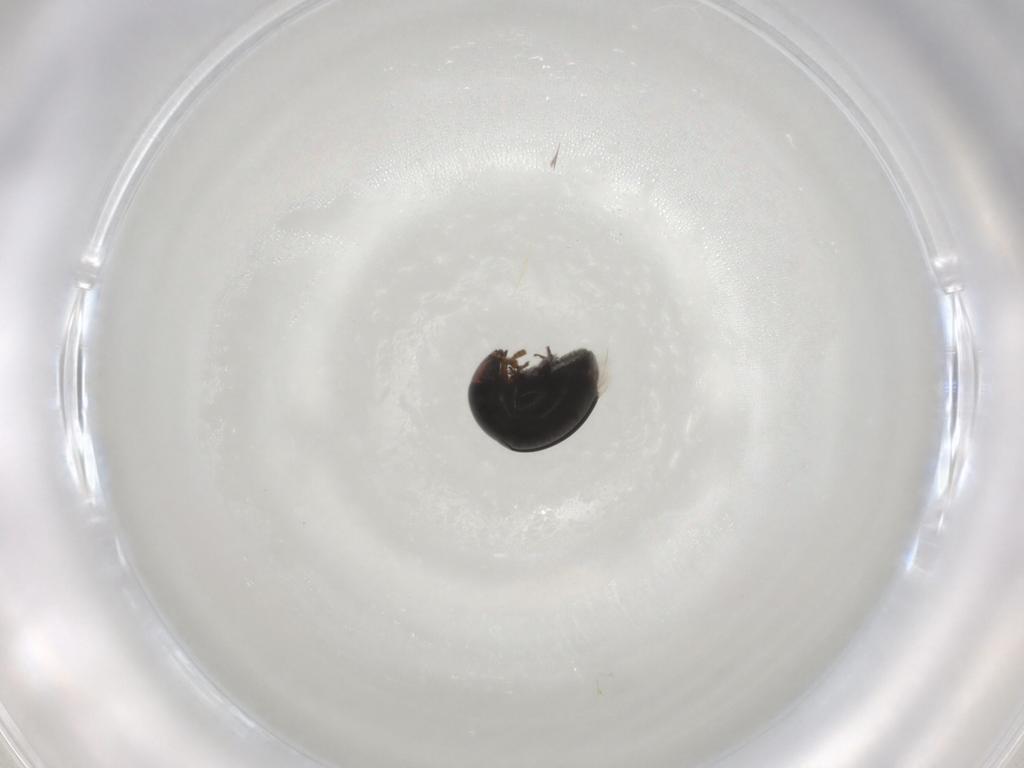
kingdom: Animalia
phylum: Arthropoda
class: Insecta
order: Coleoptera
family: Cybocephalidae
